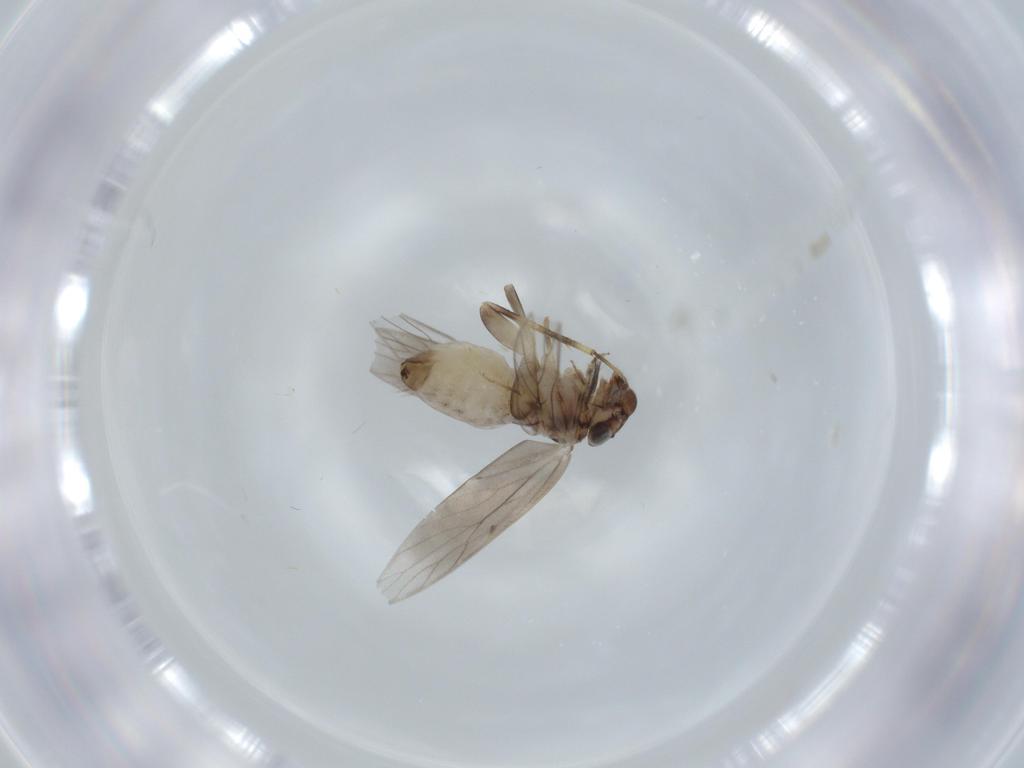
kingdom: Animalia
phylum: Arthropoda
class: Insecta
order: Psocodea
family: Lepidopsocidae
